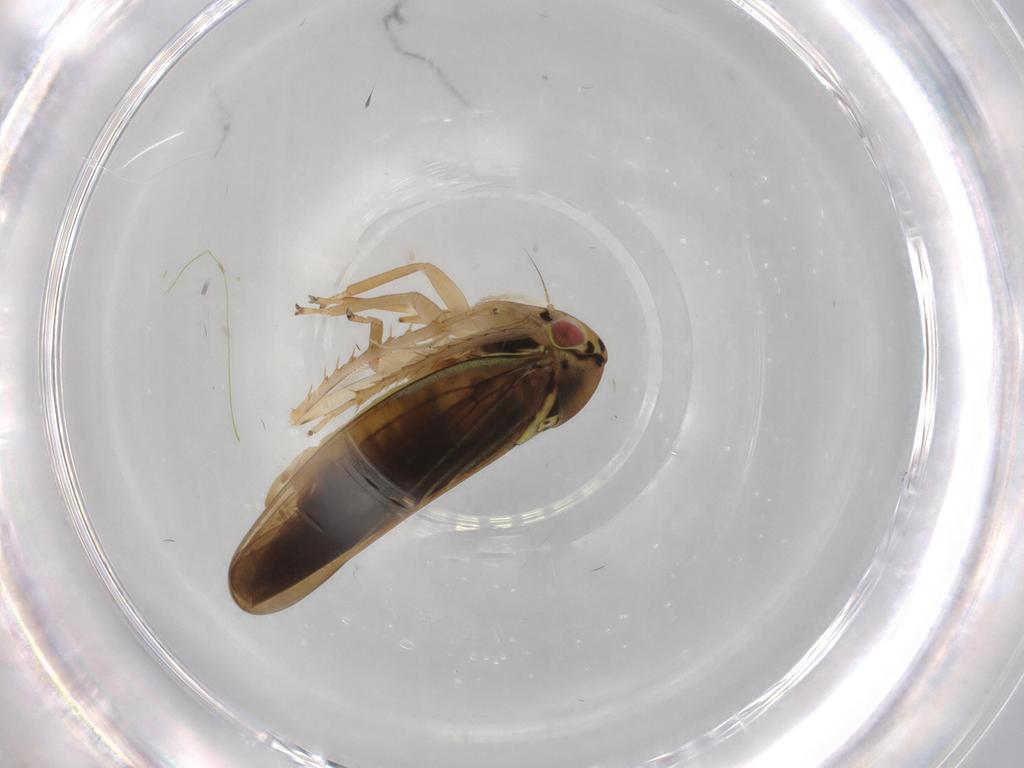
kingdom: Animalia
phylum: Arthropoda
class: Insecta
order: Hemiptera
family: Cicadellidae
